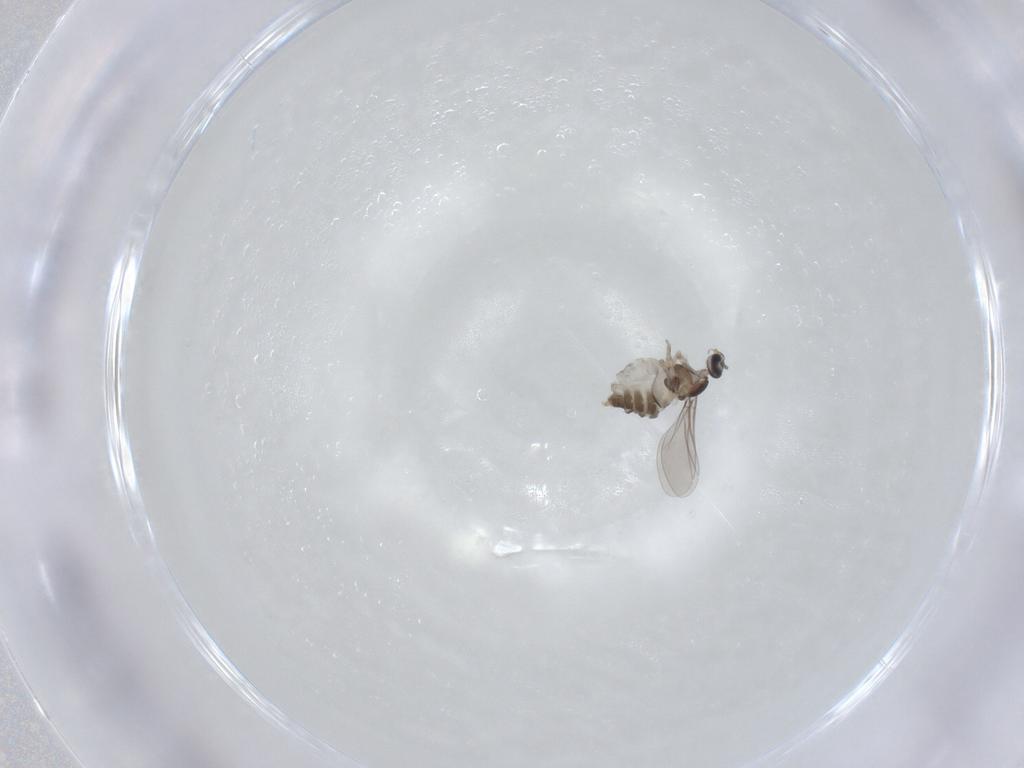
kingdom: Animalia
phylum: Arthropoda
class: Insecta
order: Diptera
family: Cecidomyiidae
